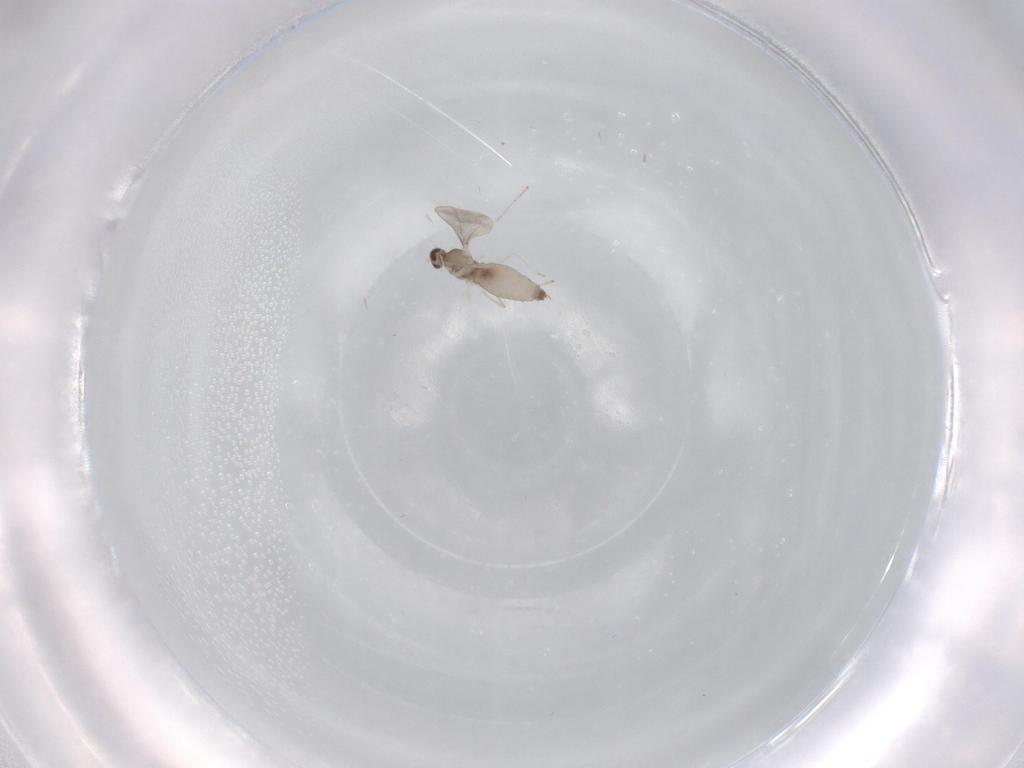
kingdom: Animalia
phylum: Arthropoda
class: Insecta
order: Diptera
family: Cecidomyiidae
